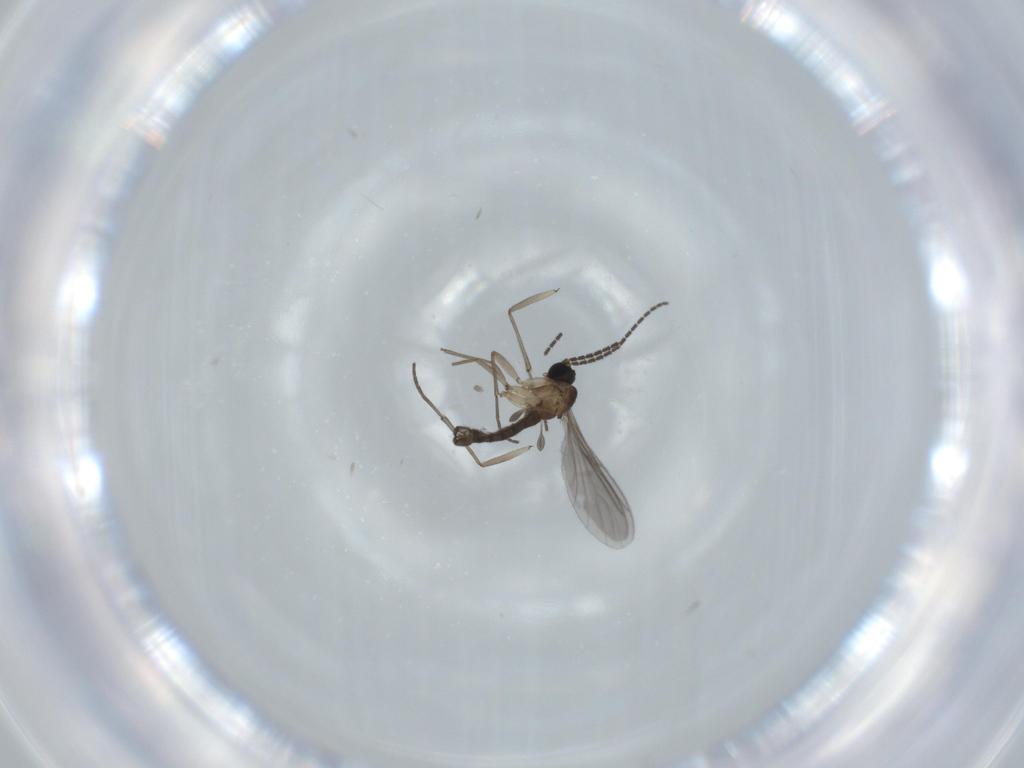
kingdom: Animalia
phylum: Arthropoda
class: Insecta
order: Diptera
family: Sciaridae
